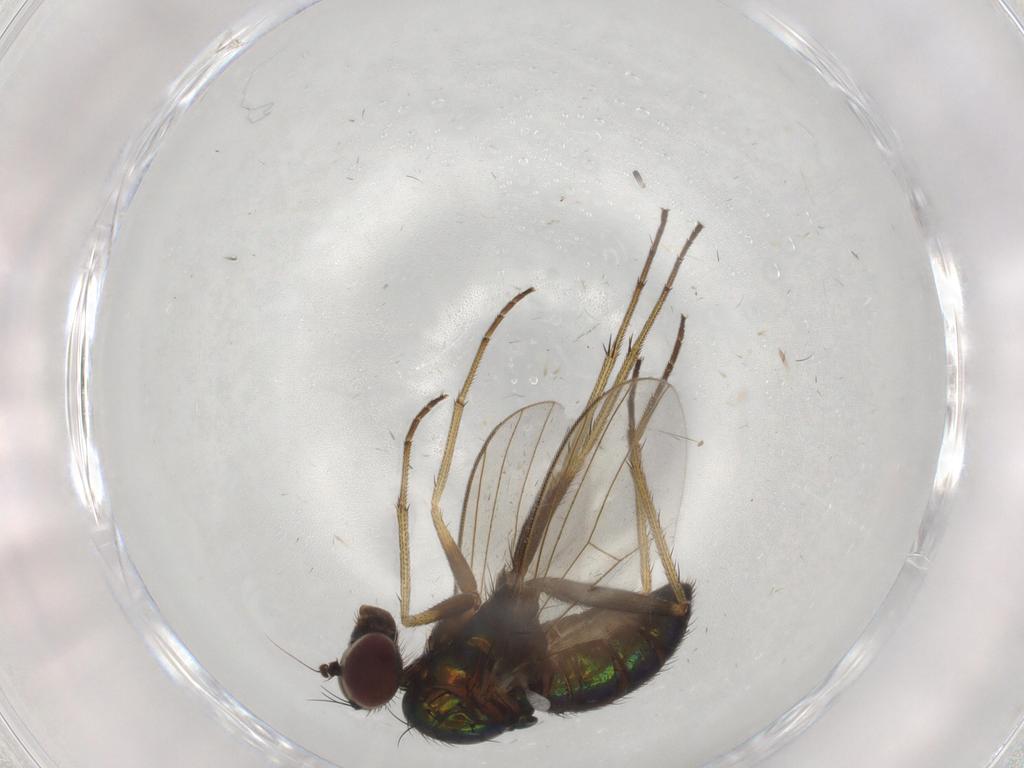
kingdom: Animalia
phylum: Arthropoda
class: Insecta
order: Diptera
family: Dolichopodidae
